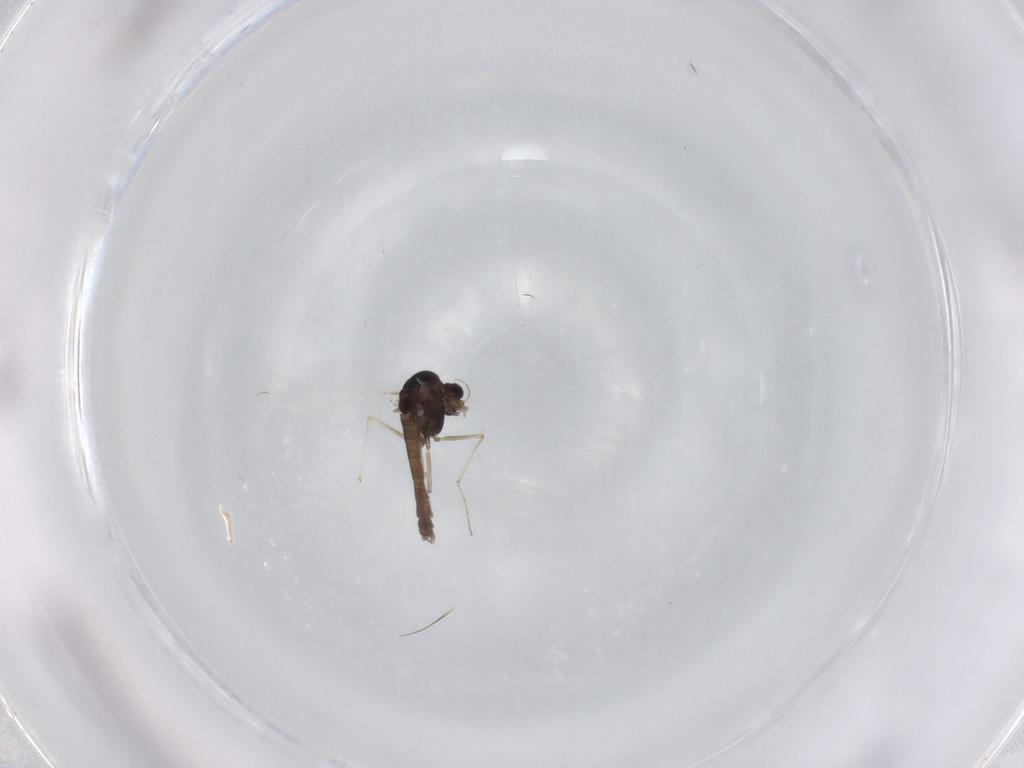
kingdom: Animalia
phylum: Arthropoda
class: Insecta
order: Diptera
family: Chironomidae
